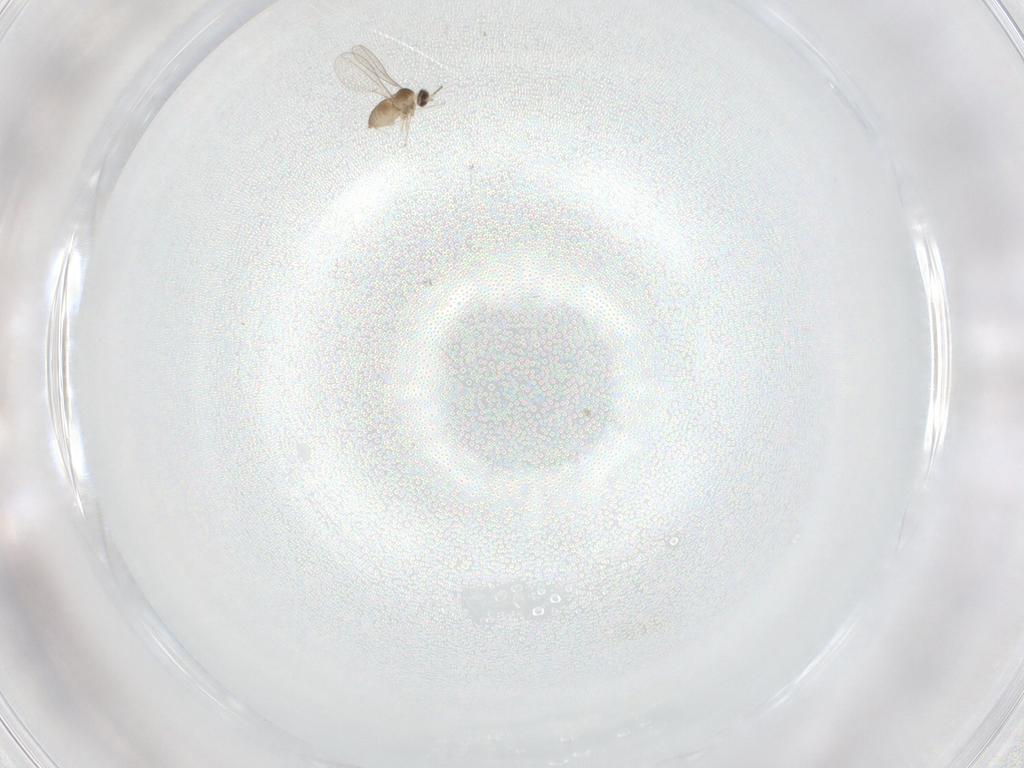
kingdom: Animalia
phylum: Arthropoda
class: Insecta
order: Diptera
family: Cecidomyiidae
